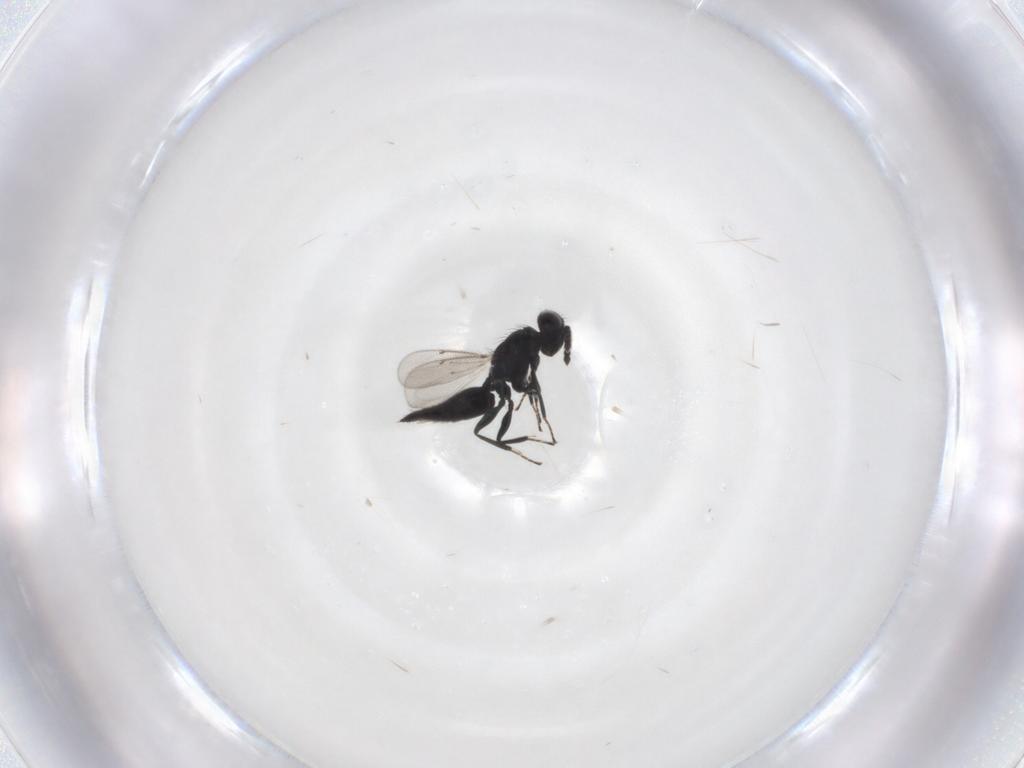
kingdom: Animalia
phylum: Arthropoda
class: Insecta
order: Hymenoptera
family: Eulophidae
